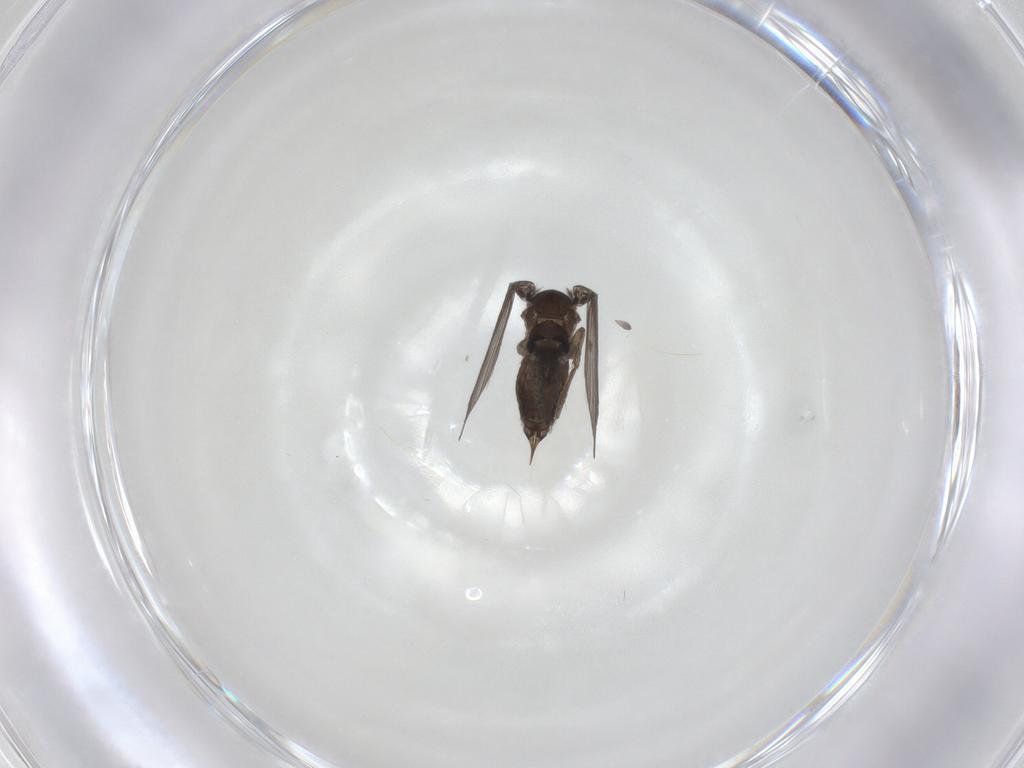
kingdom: Animalia
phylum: Arthropoda
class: Insecta
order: Diptera
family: Psychodidae
